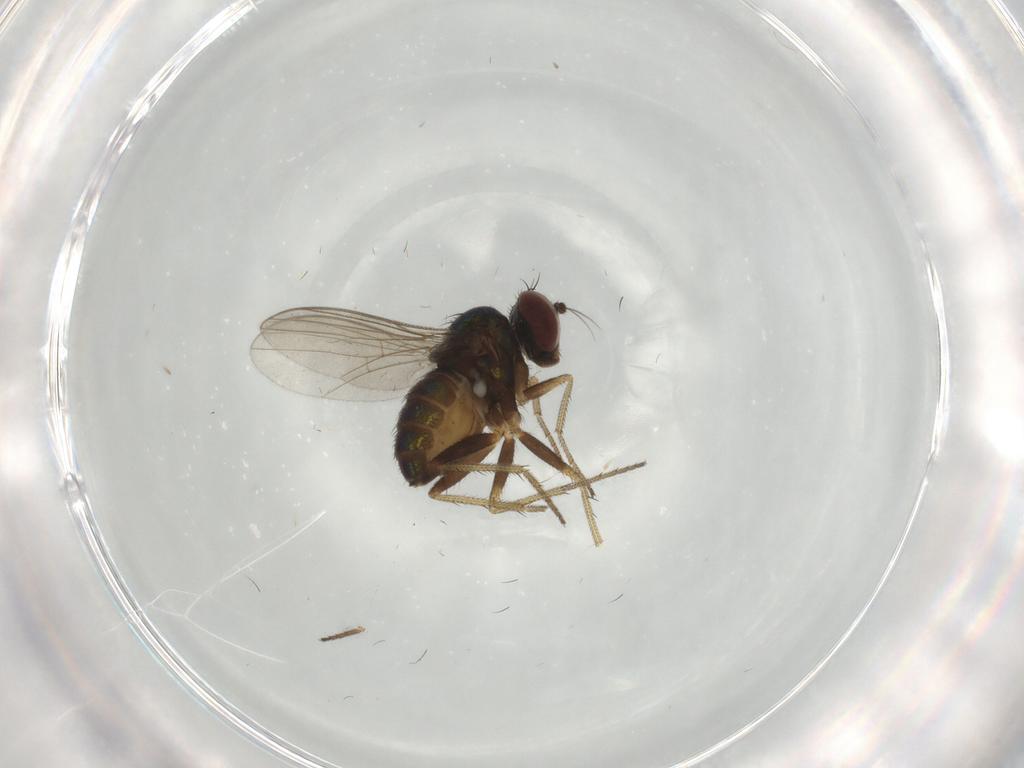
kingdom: Animalia
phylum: Arthropoda
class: Insecta
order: Diptera
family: Dolichopodidae
